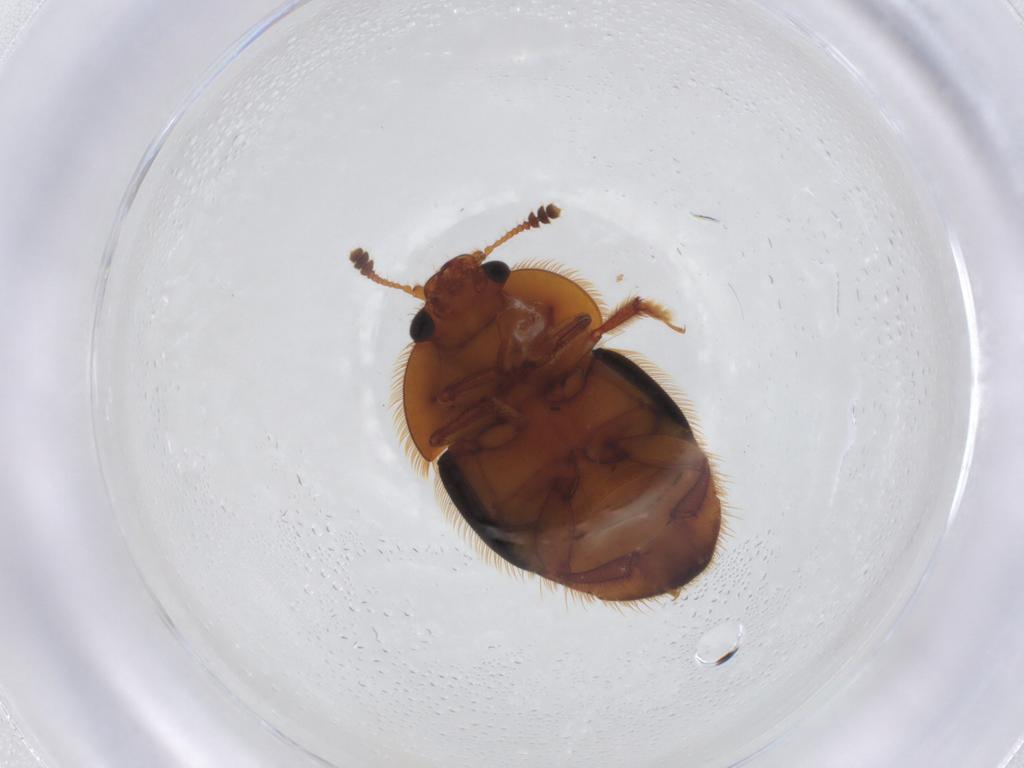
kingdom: Animalia
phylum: Arthropoda
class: Insecta
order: Coleoptera
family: Nitidulidae
